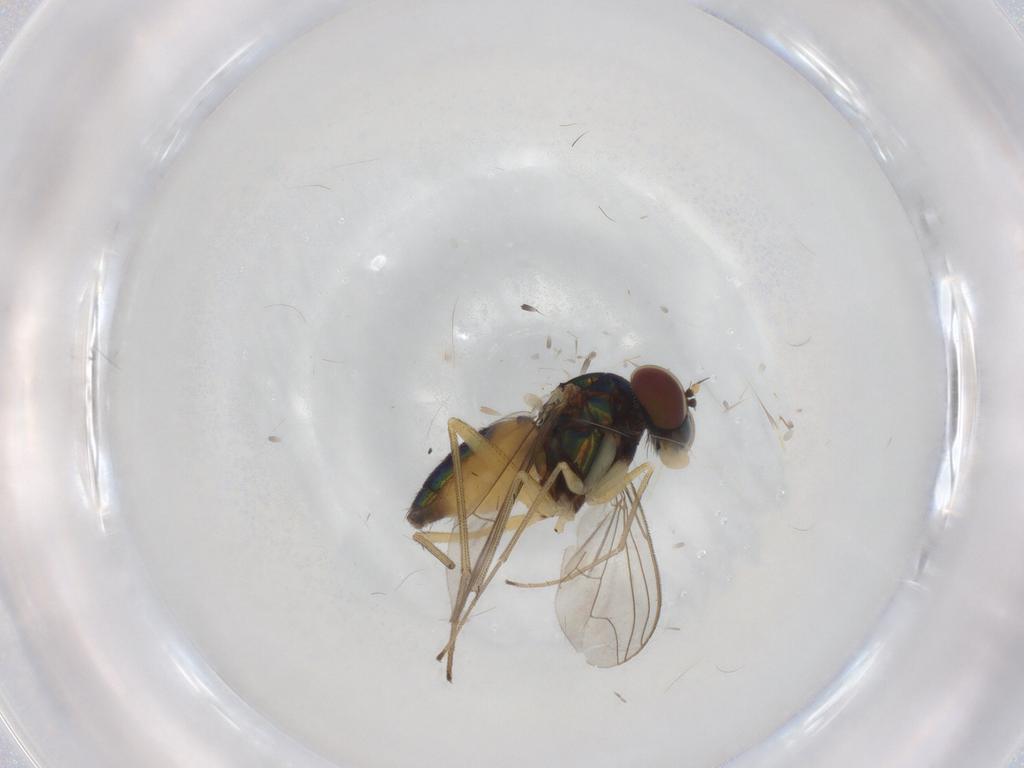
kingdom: Animalia
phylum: Arthropoda
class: Insecta
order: Diptera
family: Dolichopodidae
